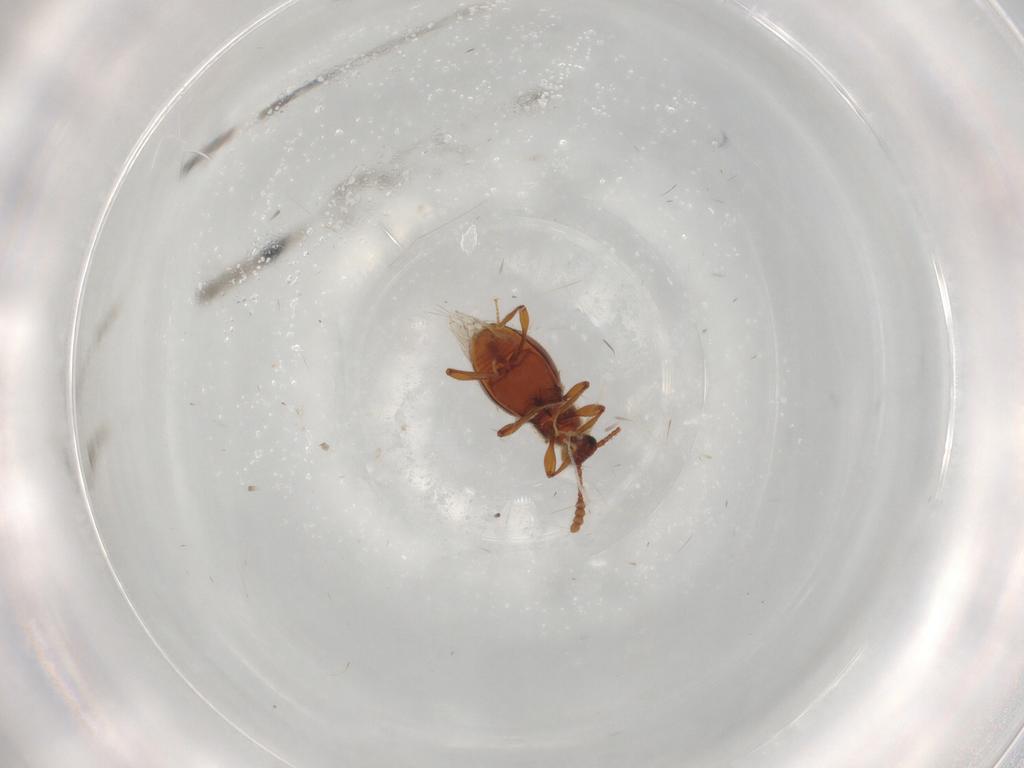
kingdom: Animalia
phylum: Arthropoda
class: Insecta
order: Coleoptera
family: Staphylinidae
